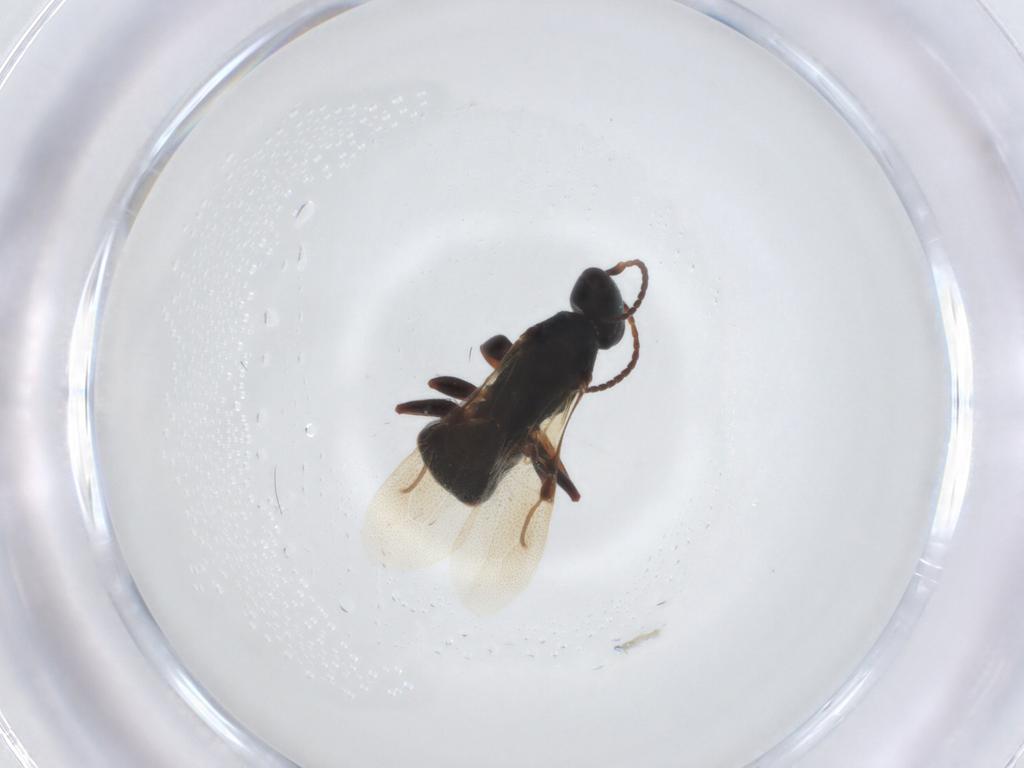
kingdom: Animalia
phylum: Arthropoda
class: Insecta
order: Hymenoptera
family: Bethylidae
